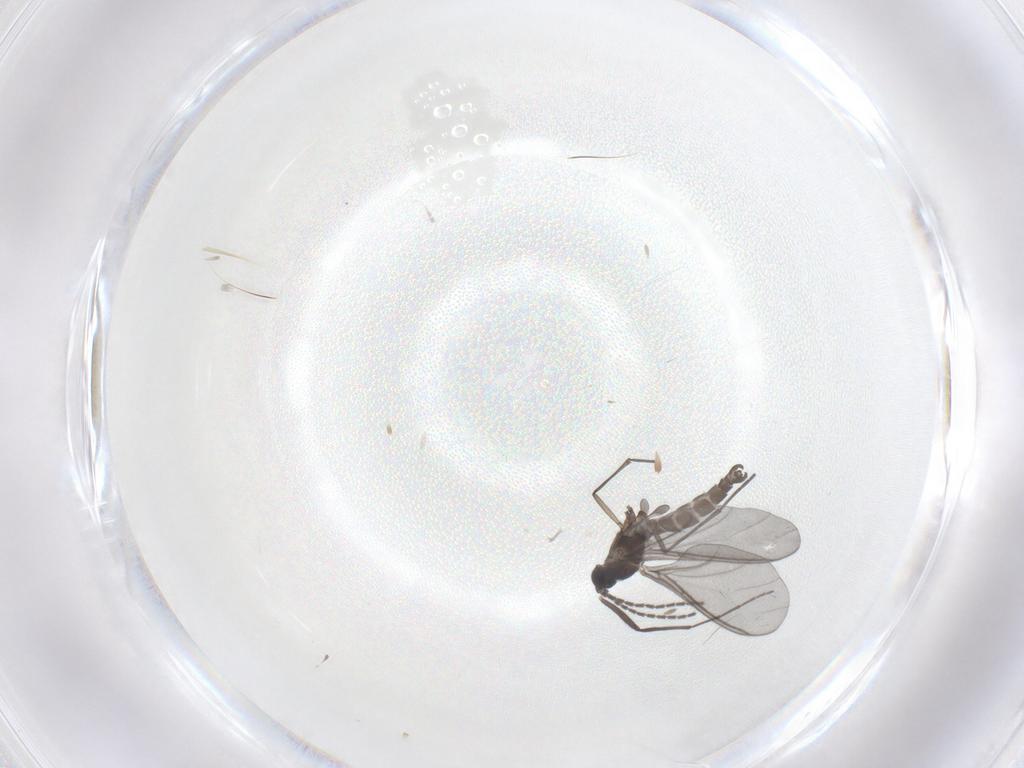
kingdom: Animalia
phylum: Arthropoda
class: Insecta
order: Diptera
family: Sciaridae
